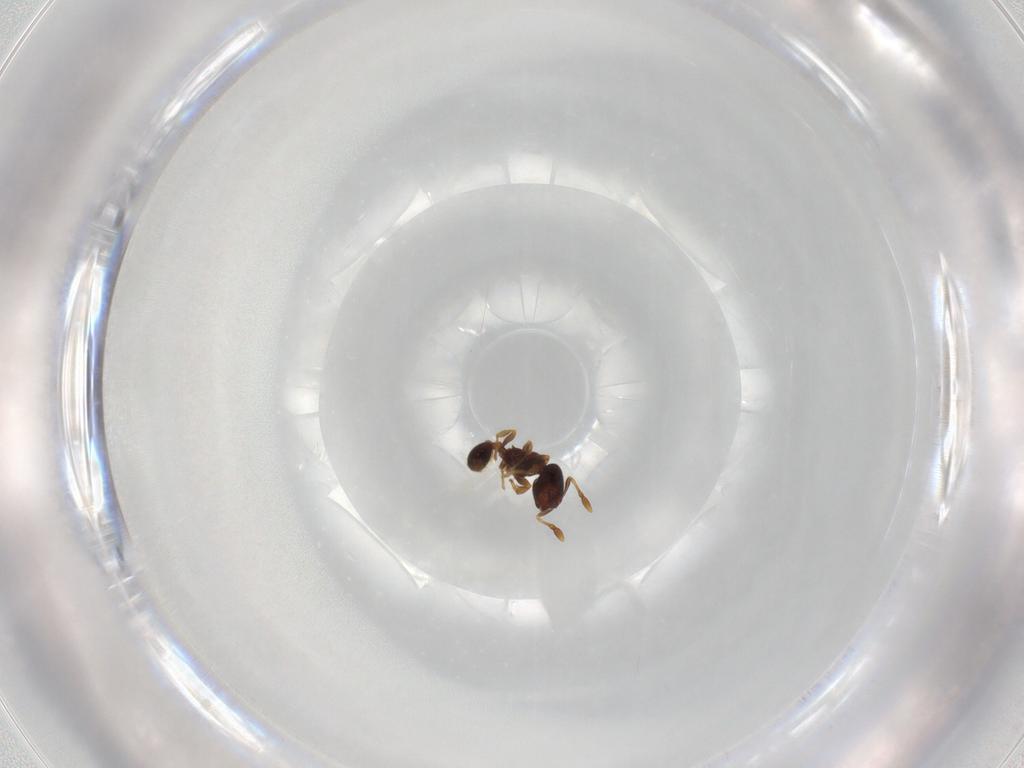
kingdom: Animalia
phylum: Arthropoda
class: Insecta
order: Hymenoptera
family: Formicidae
